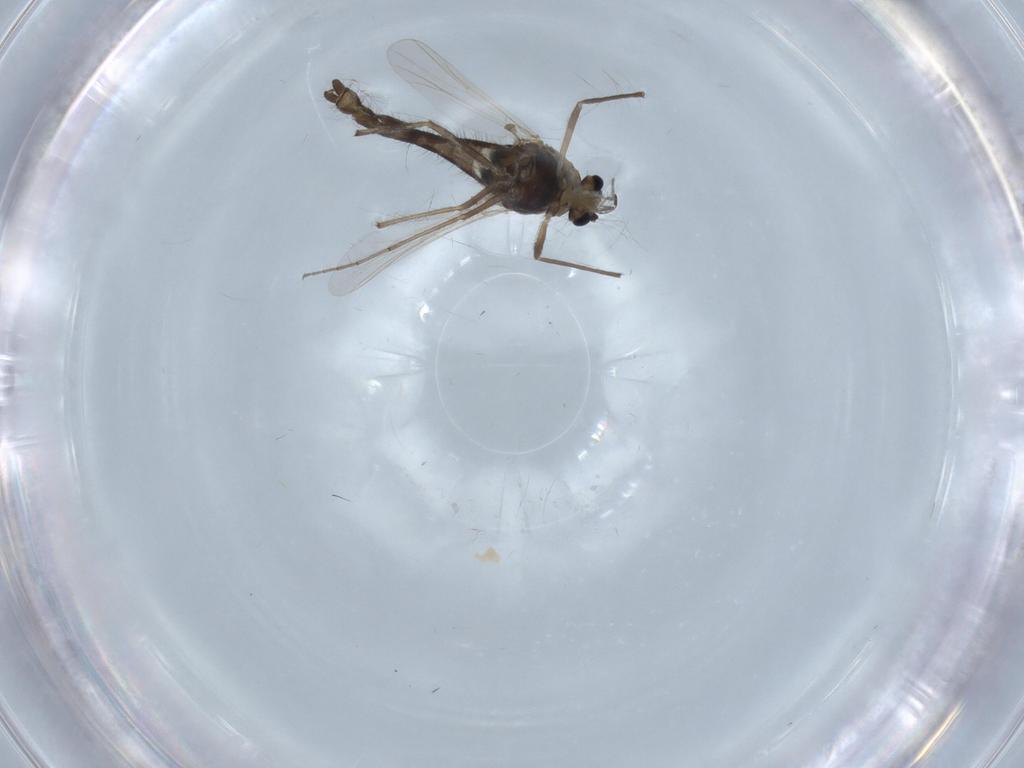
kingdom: Animalia
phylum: Arthropoda
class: Insecta
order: Diptera
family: Chironomidae
